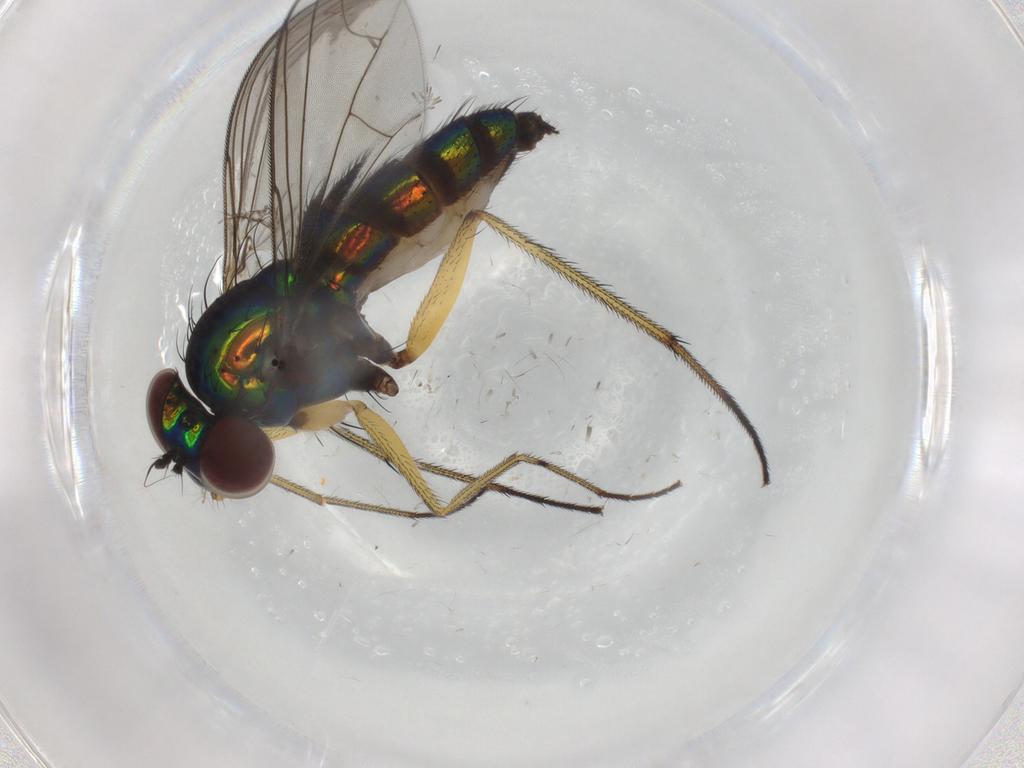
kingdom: Animalia
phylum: Arthropoda
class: Insecta
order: Diptera
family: Dolichopodidae
